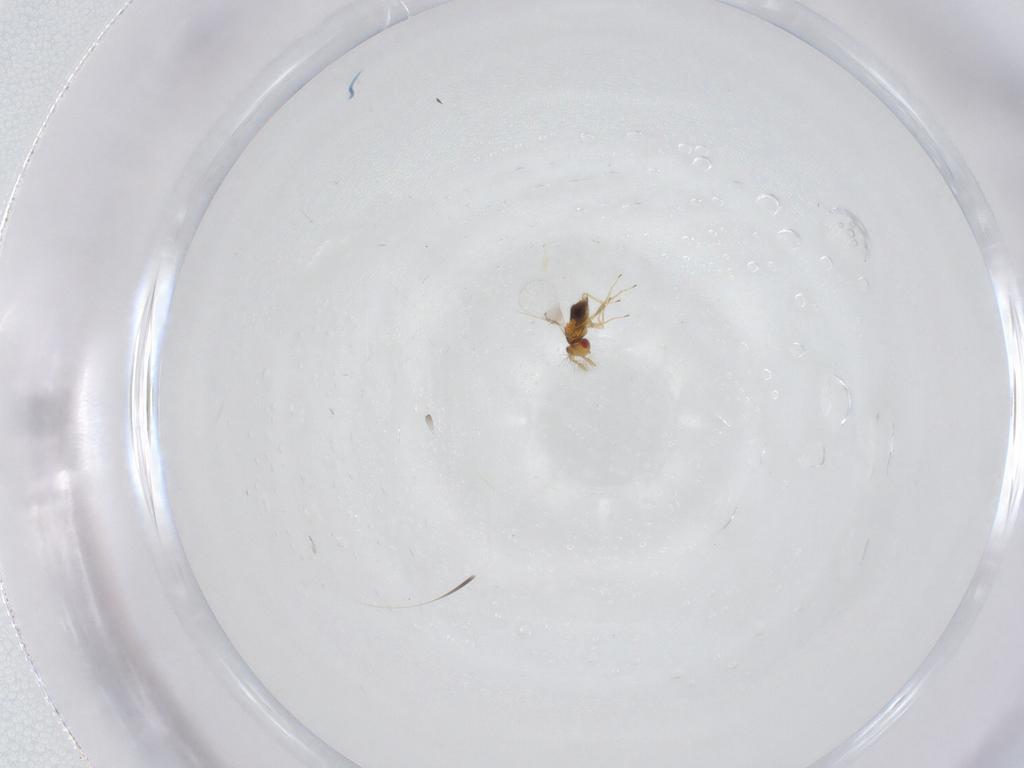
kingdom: Animalia
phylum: Arthropoda
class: Insecta
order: Hymenoptera
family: Trichogrammatidae
